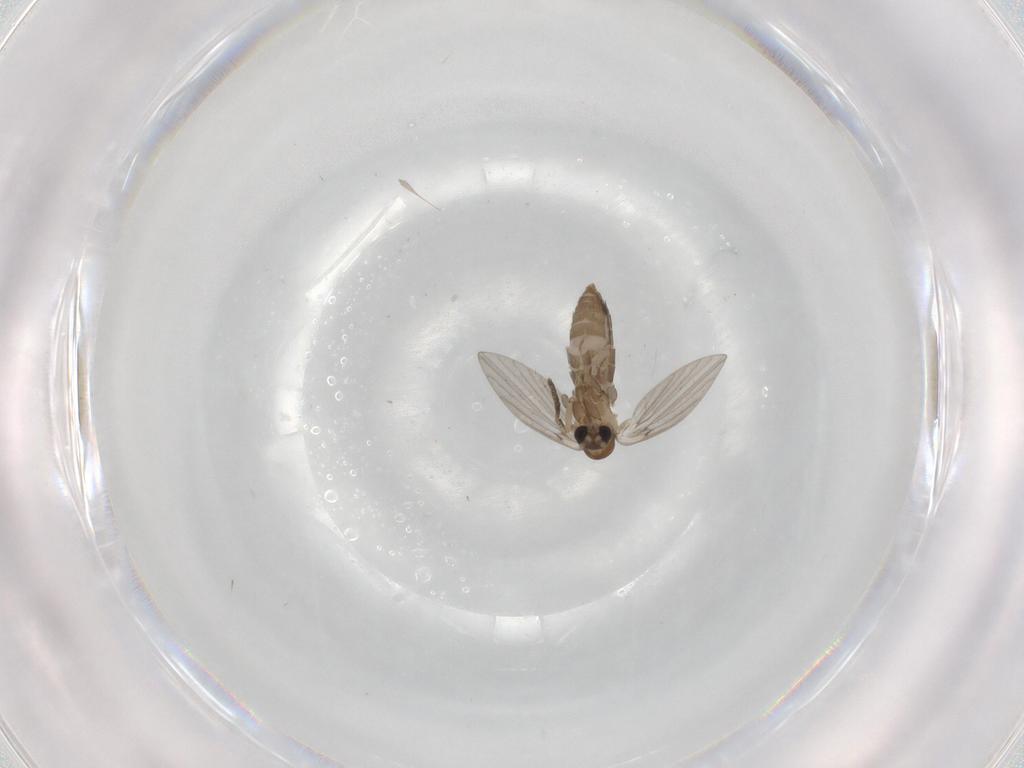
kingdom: Animalia
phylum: Arthropoda
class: Insecta
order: Diptera
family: Sciaridae
